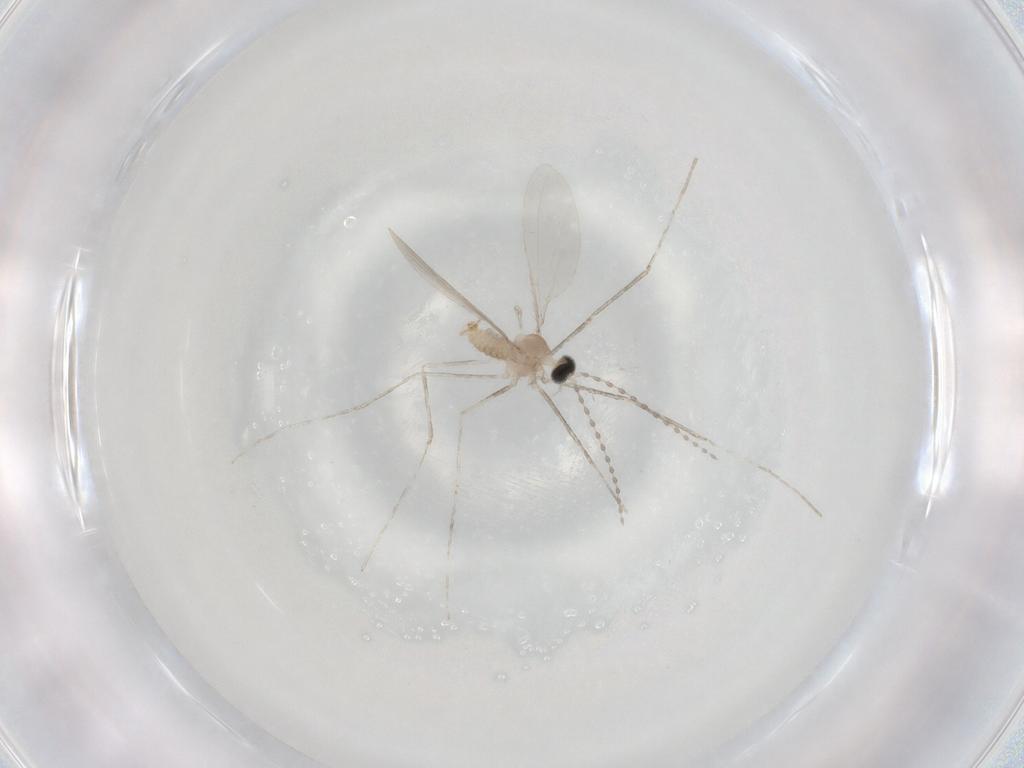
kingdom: Animalia
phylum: Arthropoda
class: Insecta
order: Diptera
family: Cecidomyiidae
